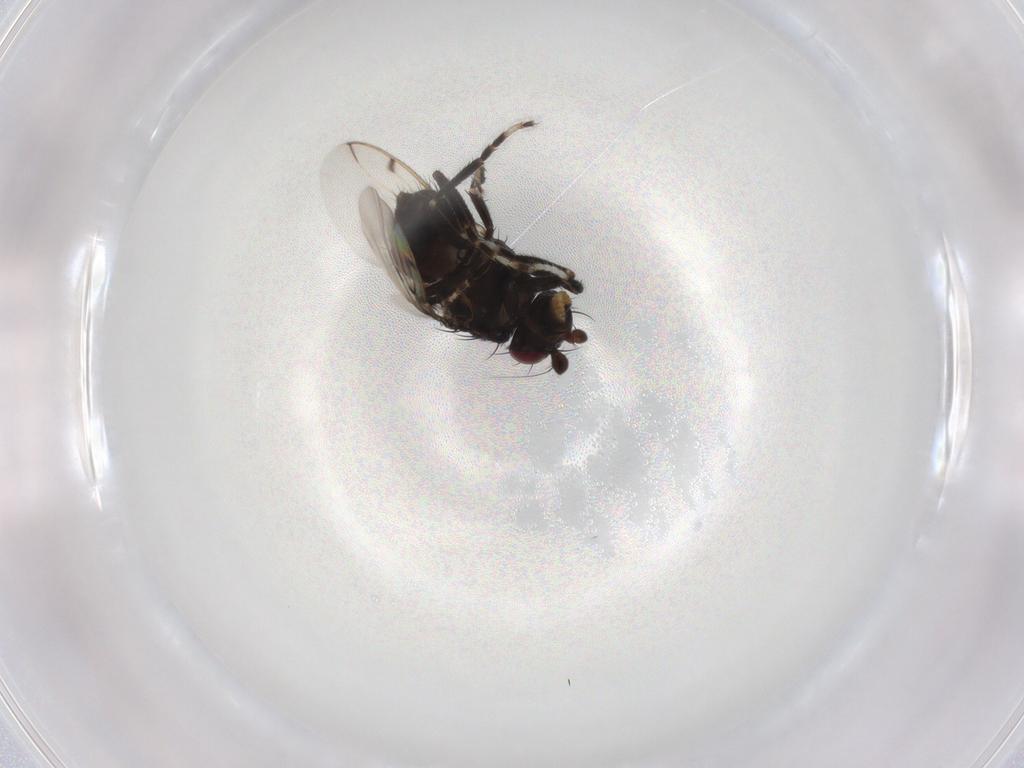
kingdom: Animalia
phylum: Arthropoda
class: Insecta
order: Diptera
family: Sphaeroceridae
